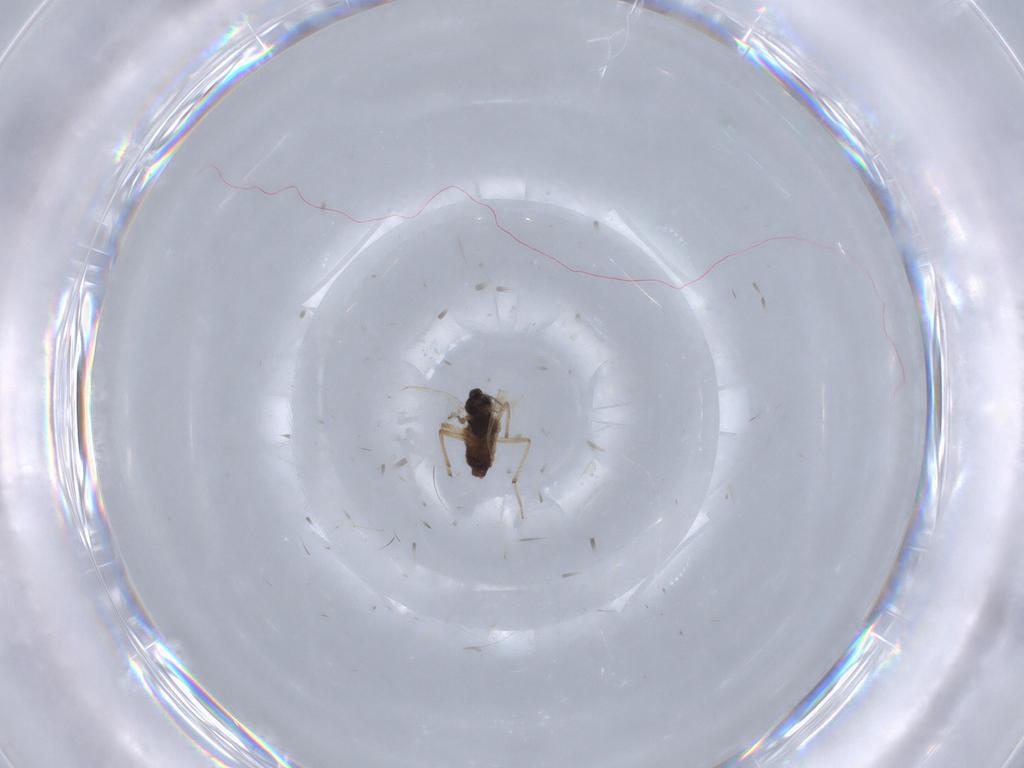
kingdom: Animalia
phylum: Arthropoda
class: Insecta
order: Diptera
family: Chironomidae
